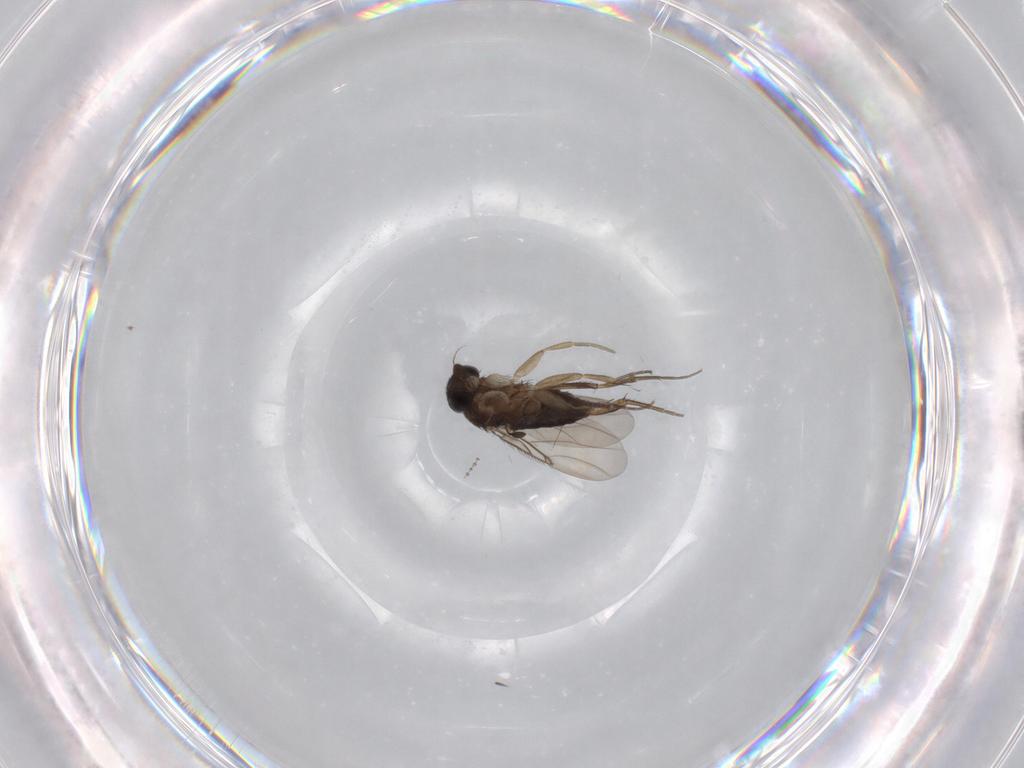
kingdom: Animalia
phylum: Arthropoda
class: Insecta
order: Diptera
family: Phoridae
